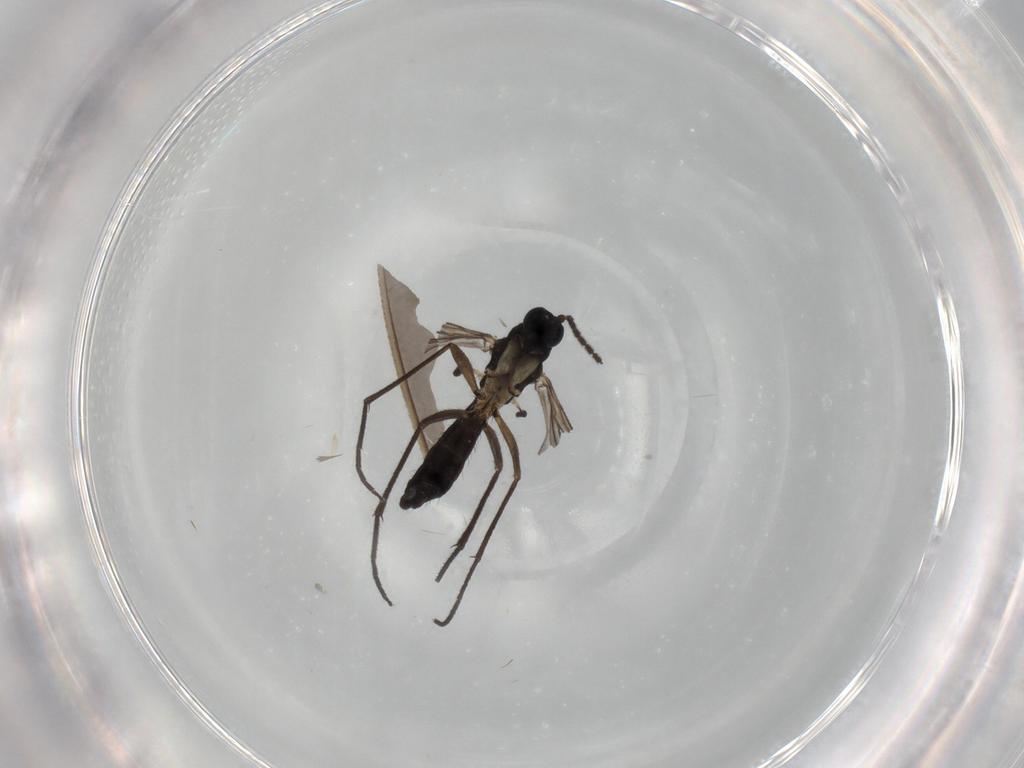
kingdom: Animalia
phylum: Arthropoda
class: Insecta
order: Diptera
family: Sciaridae
